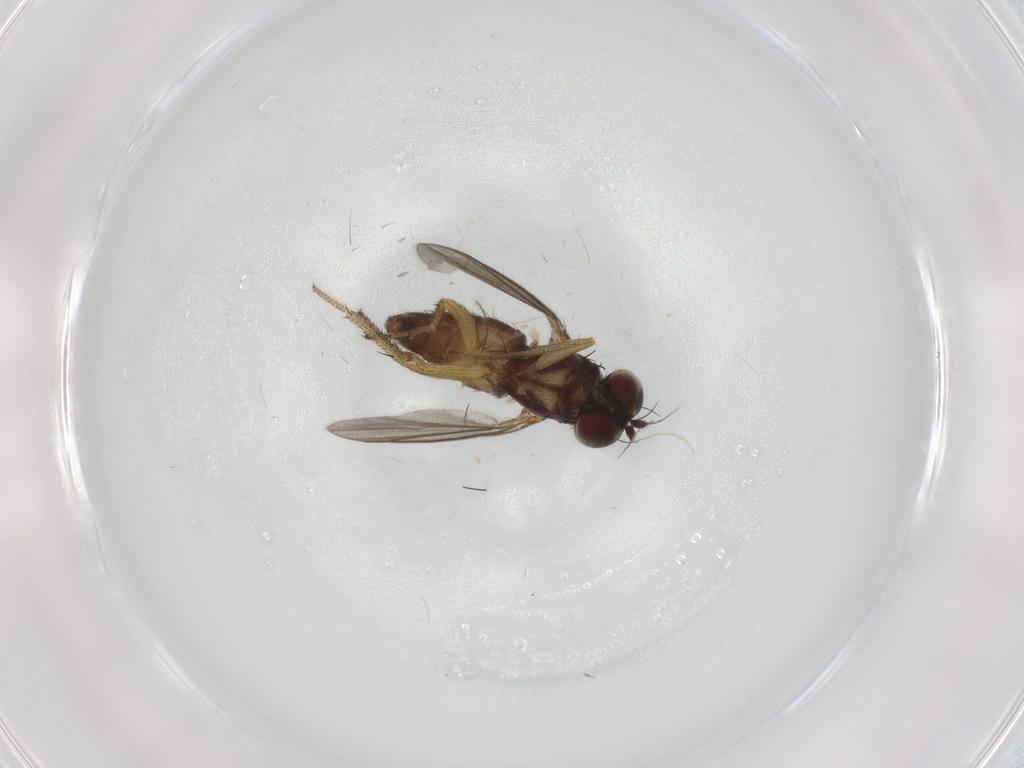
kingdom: Animalia
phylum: Arthropoda
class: Insecta
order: Diptera
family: Dolichopodidae
